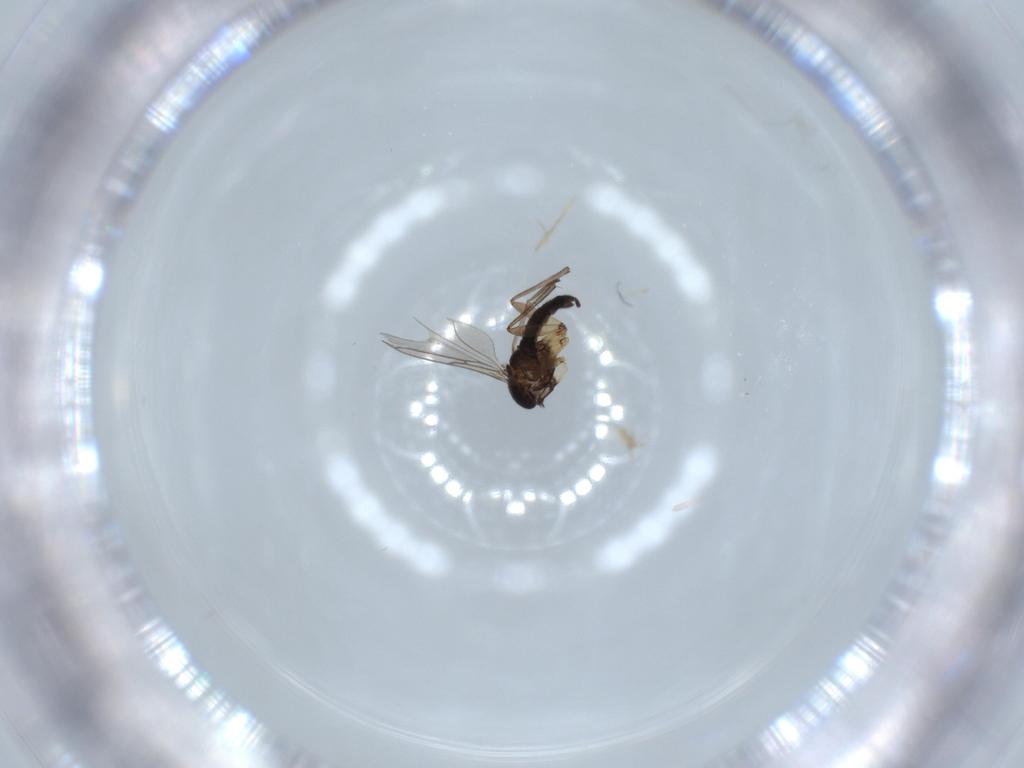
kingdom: Animalia
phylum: Arthropoda
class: Insecta
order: Diptera
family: Sciaridae
